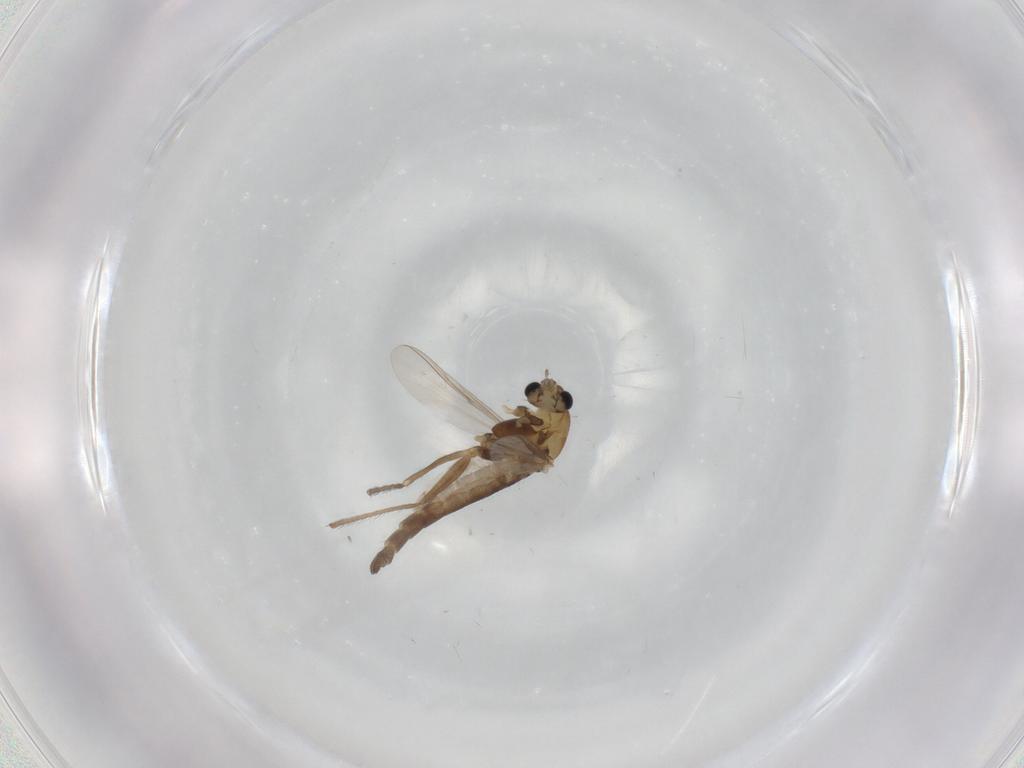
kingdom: Animalia
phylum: Arthropoda
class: Insecta
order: Diptera
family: Chironomidae
